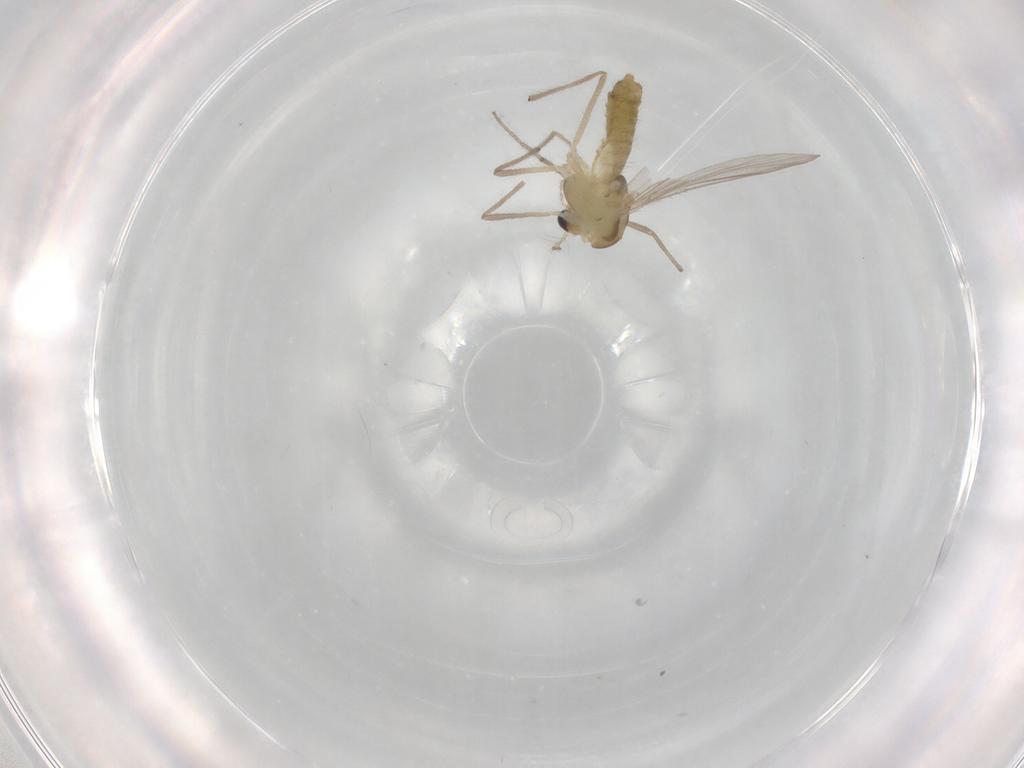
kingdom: Animalia
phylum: Arthropoda
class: Insecta
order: Diptera
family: Chironomidae
